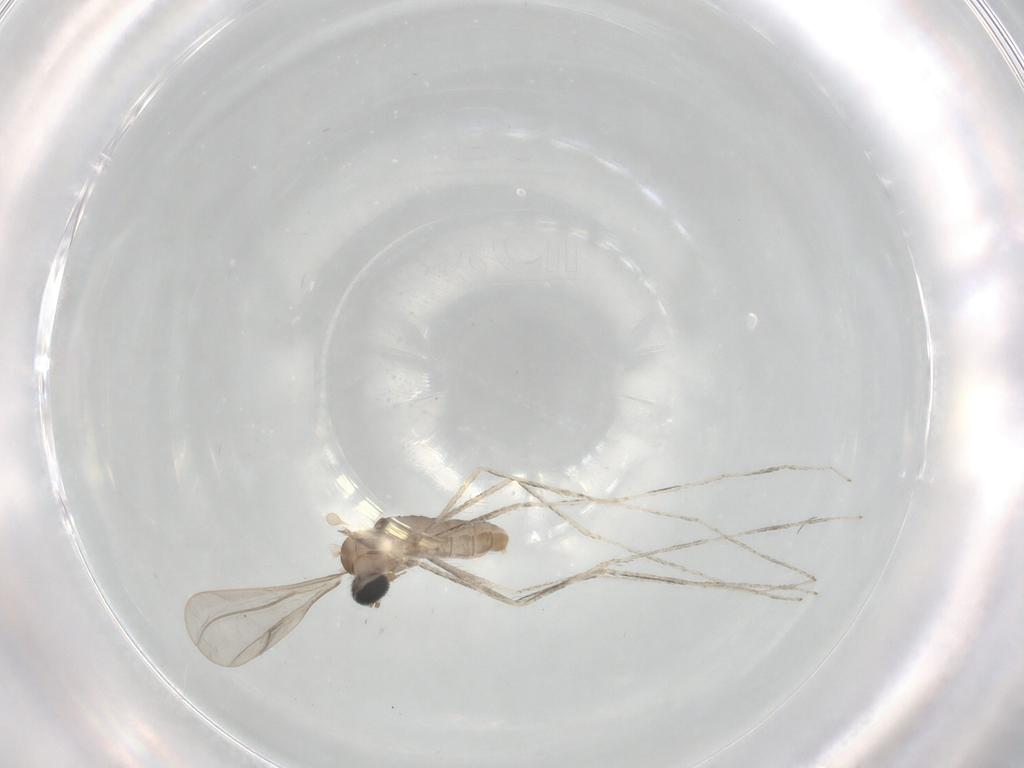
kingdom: Animalia
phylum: Arthropoda
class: Insecta
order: Diptera
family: Cecidomyiidae
